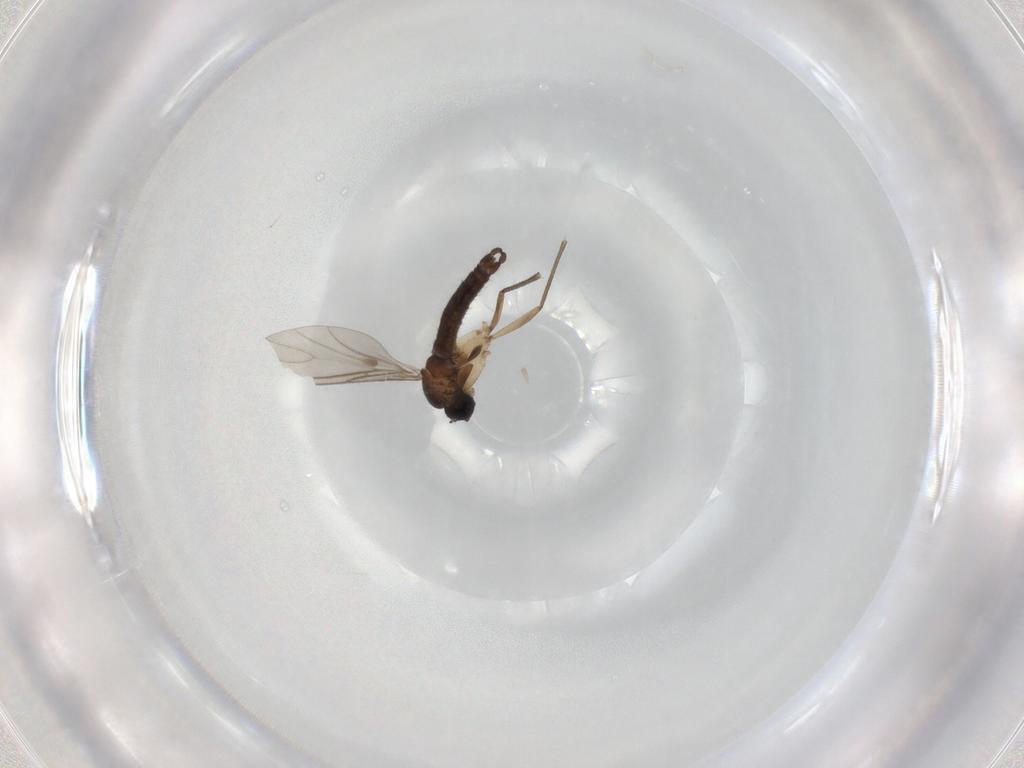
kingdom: Animalia
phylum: Arthropoda
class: Insecta
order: Diptera
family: Sciaridae
